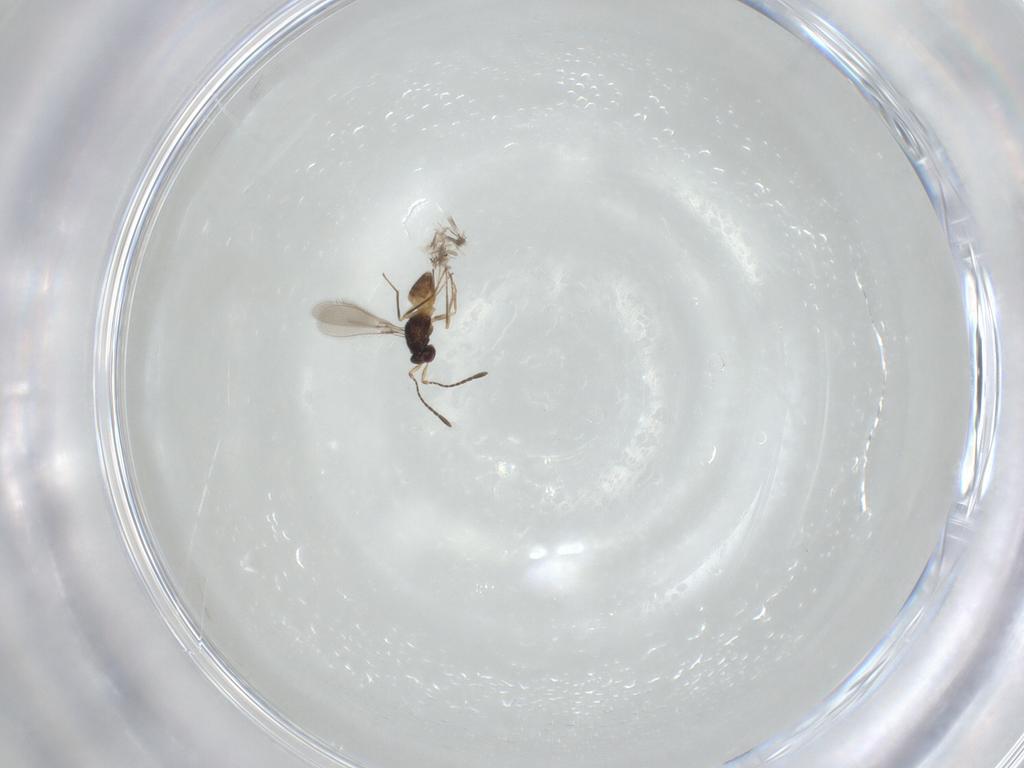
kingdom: Animalia
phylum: Arthropoda
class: Insecta
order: Hymenoptera
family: Mymaridae
